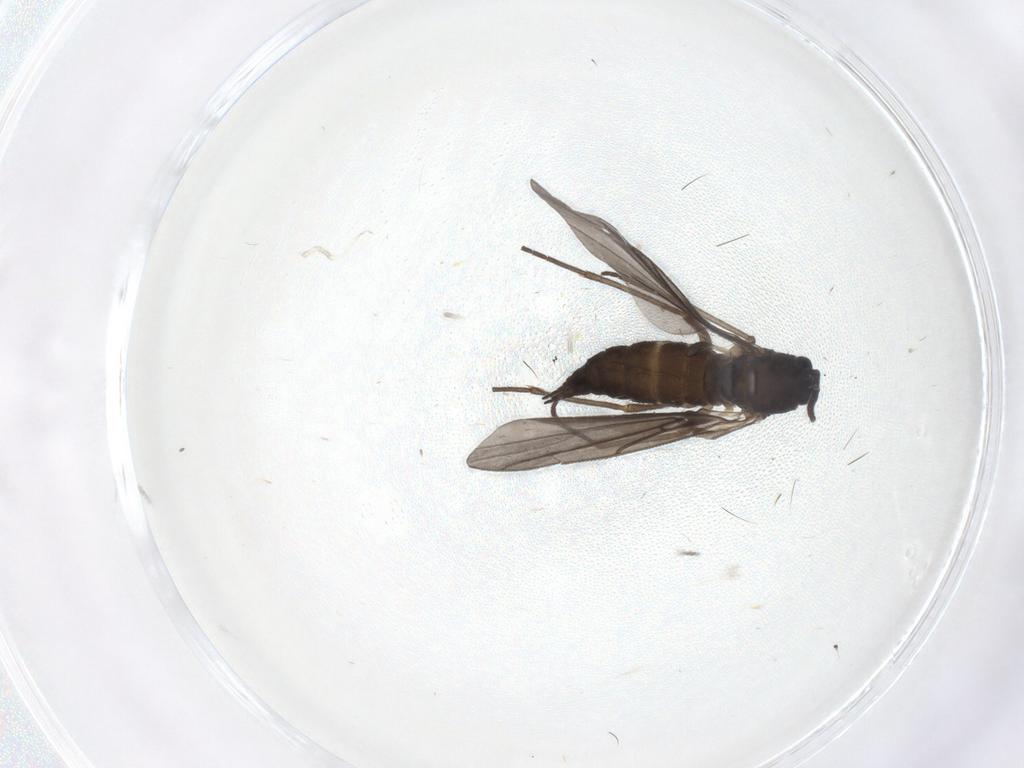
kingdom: Animalia
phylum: Arthropoda
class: Insecta
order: Diptera
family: Sciaridae
